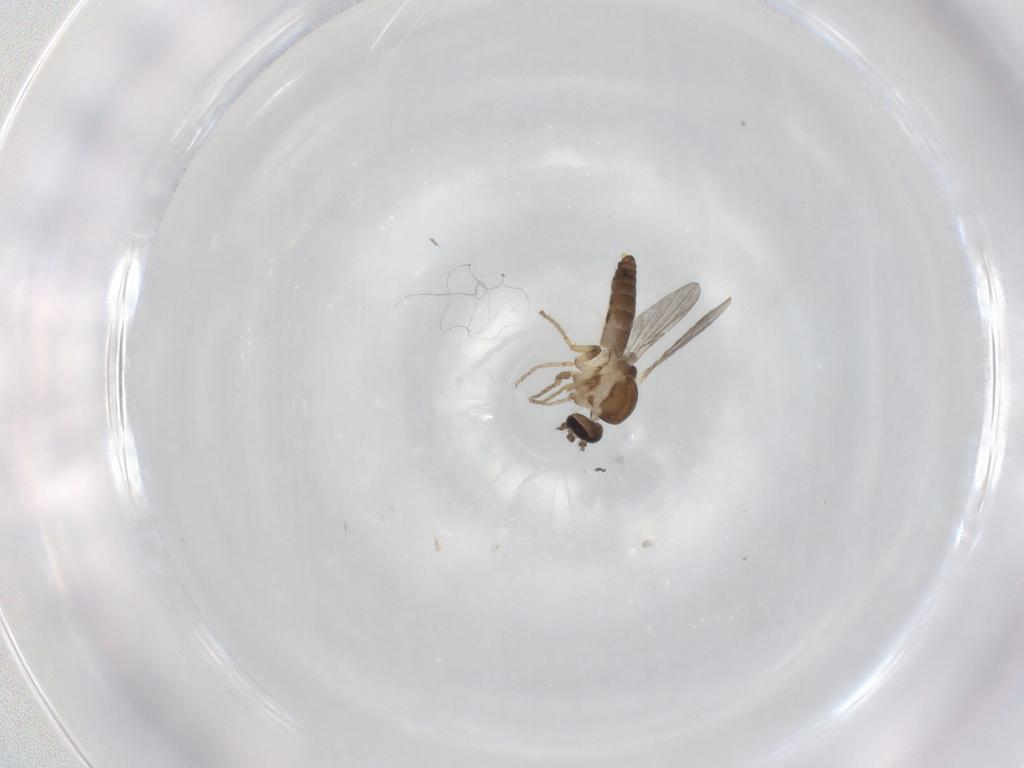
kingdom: Animalia
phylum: Arthropoda
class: Insecta
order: Diptera
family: Ceratopogonidae
